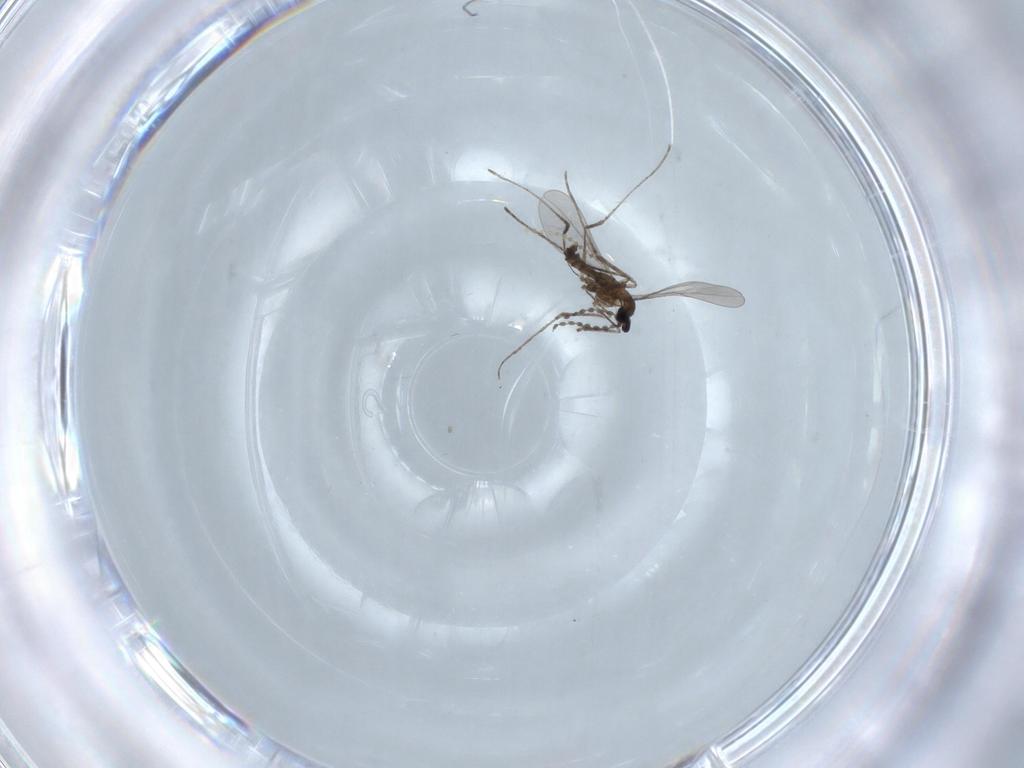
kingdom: Animalia
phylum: Arthropoda
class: Insecta
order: Diptera
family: Cecidomyiidae
